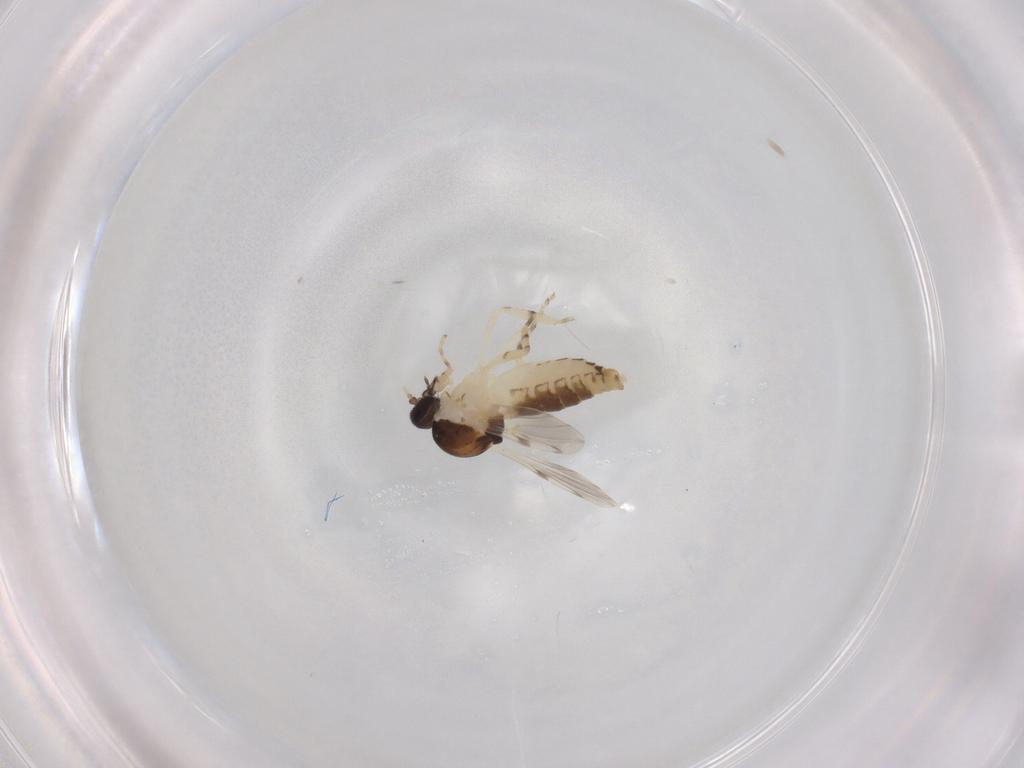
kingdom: Animalia
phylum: Arthropoda
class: Insecta
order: Diptera
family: Ceratopogonidae
